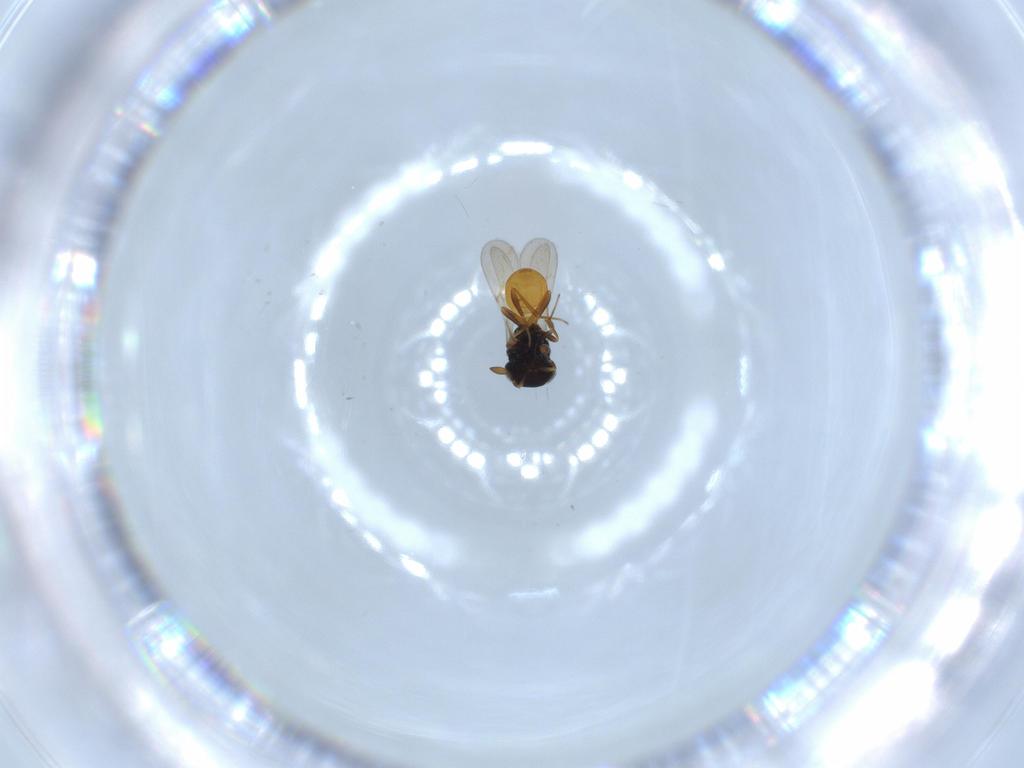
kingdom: Animalia
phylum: Arthropoda
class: Insecta
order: Hymenoptera
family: Scelionidae
